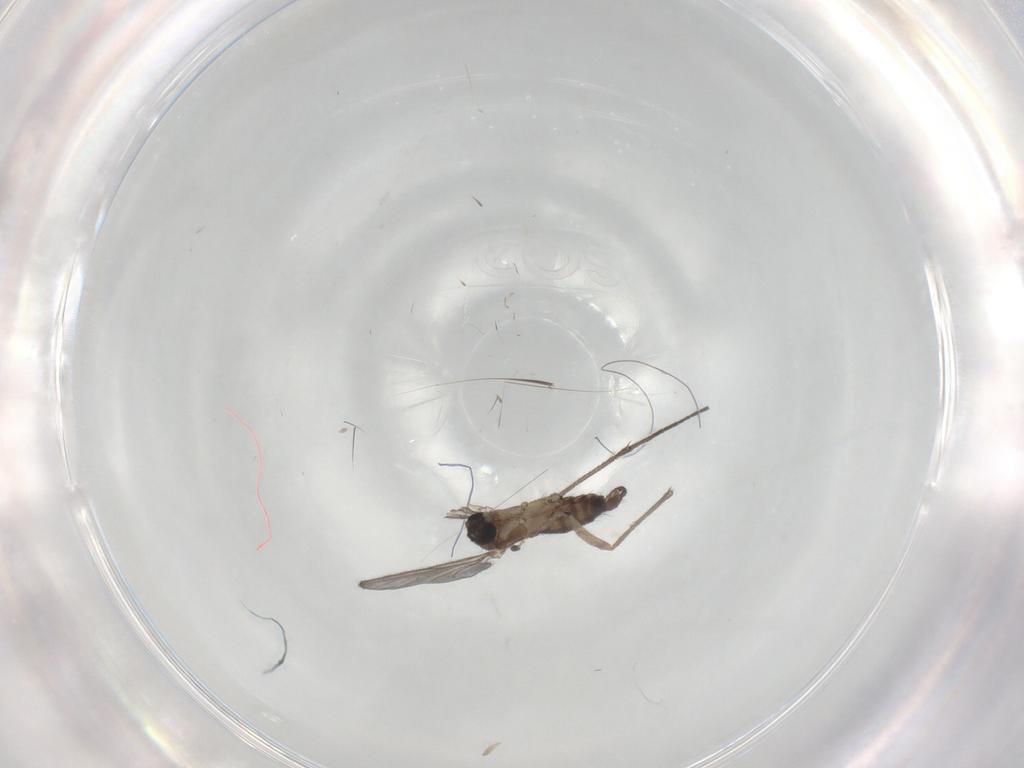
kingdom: Animalia
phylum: Arthropoda
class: Insecta
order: Diptera
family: Sciaridae
